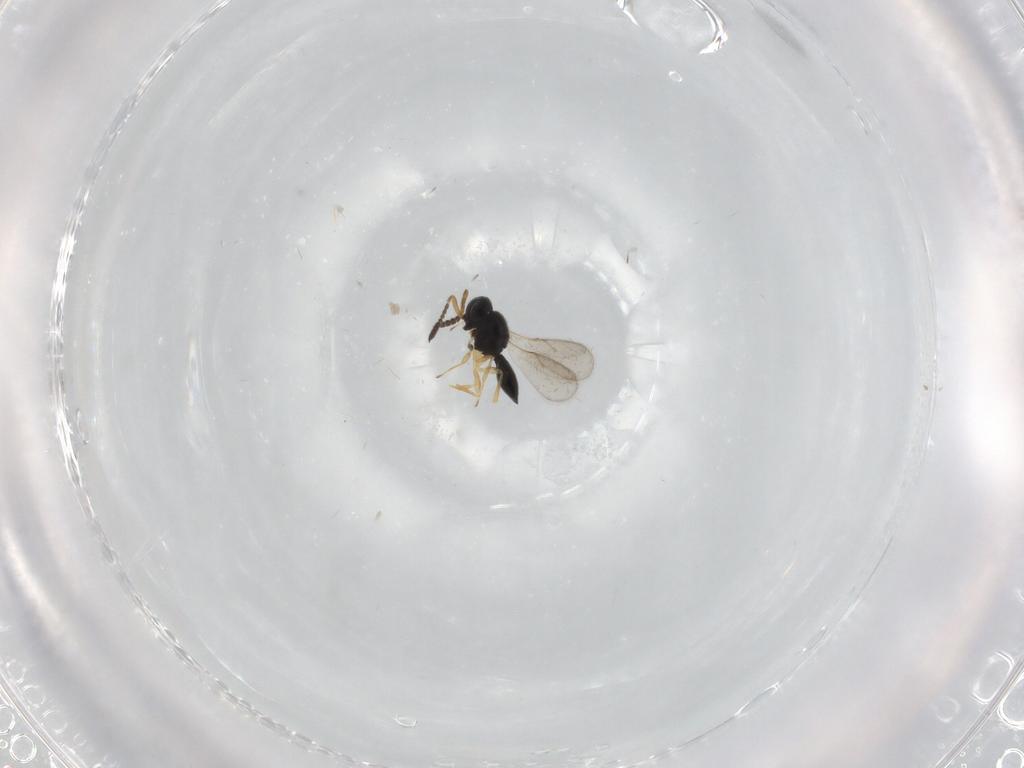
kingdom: Animalia
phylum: Arthropoda
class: Insecta
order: Hymenoptera
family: Scelionidae
